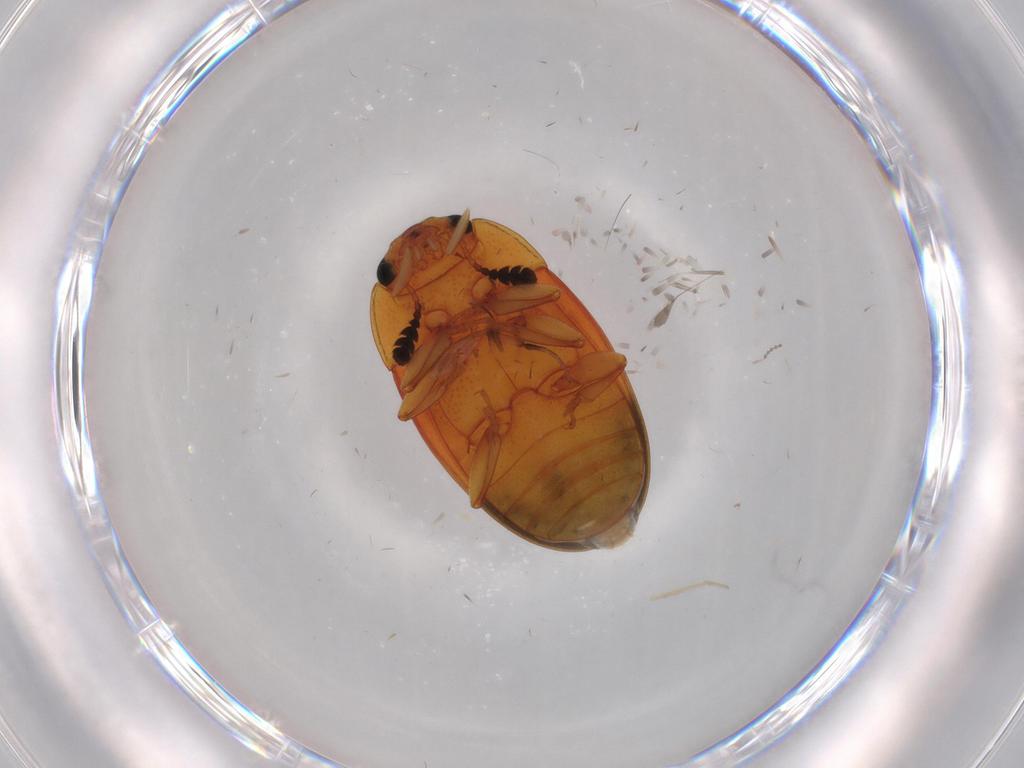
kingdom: Animalia
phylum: Arthropoda
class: Insecta
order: Coleoptera
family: Erotylidae
